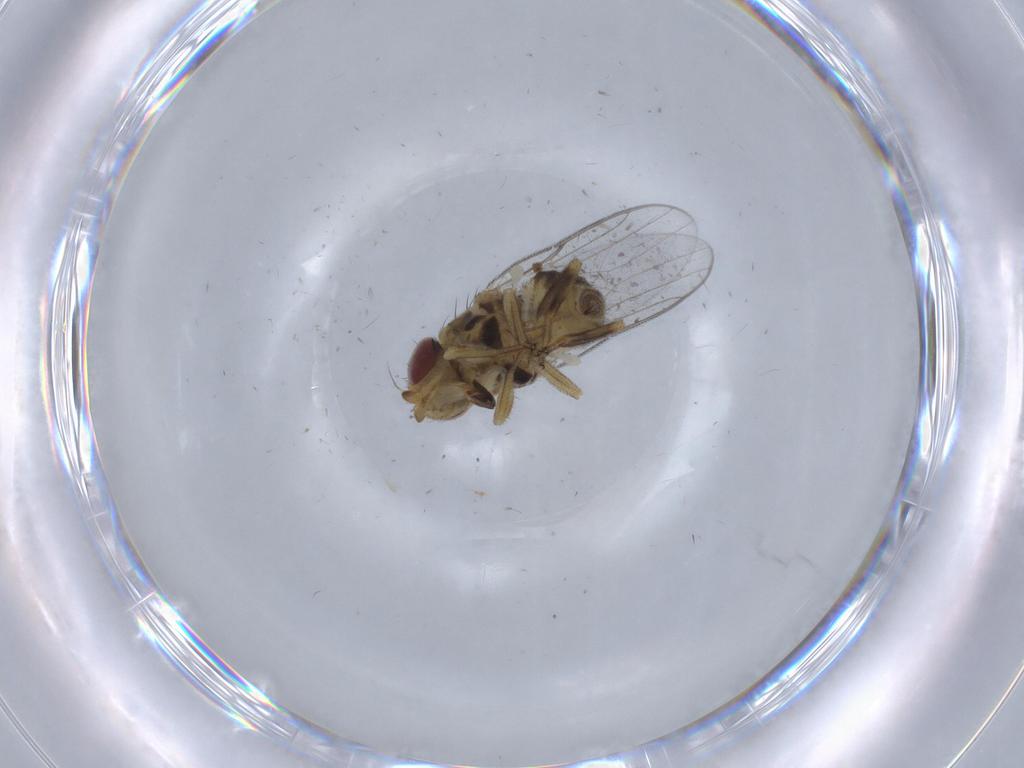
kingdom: Animalia
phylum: Arthropoda
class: Insecta
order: Diptera
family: Chloropidae
